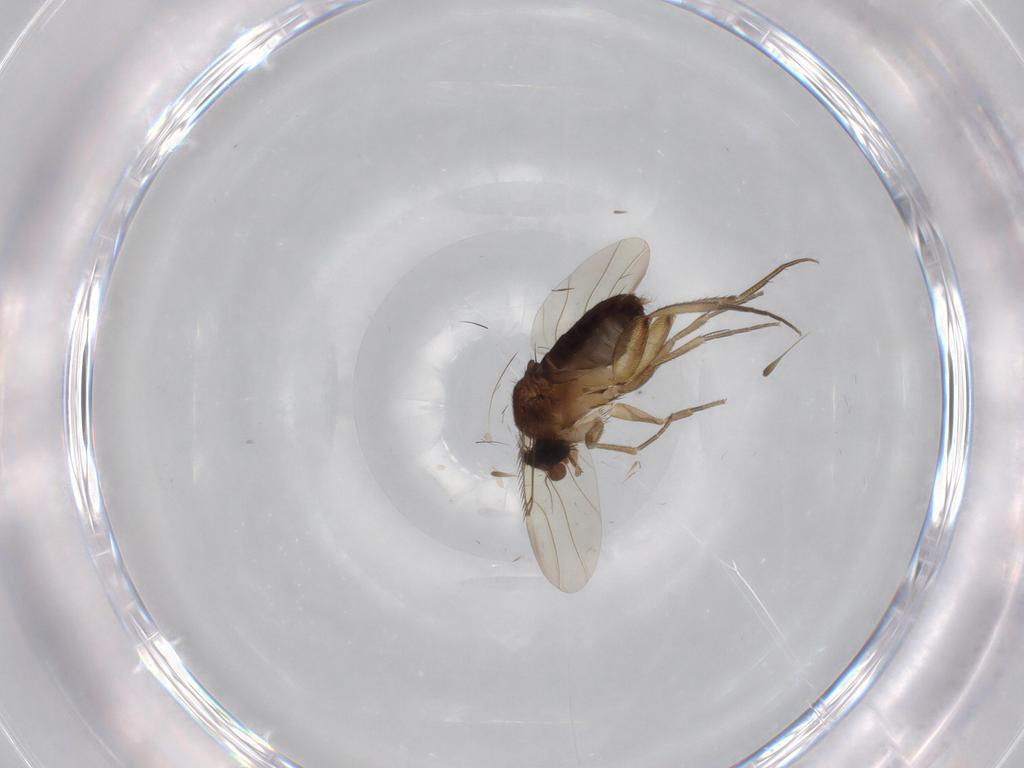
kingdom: Animalia
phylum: Arthropoda
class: Insecta
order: Diptera
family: Phoridae
